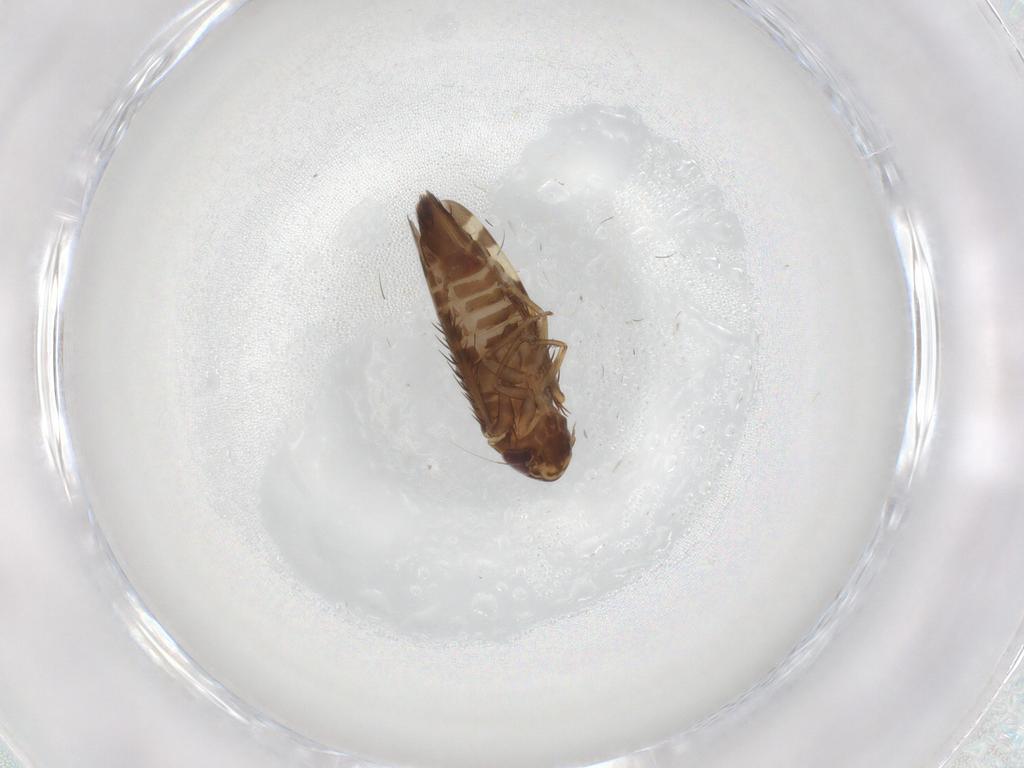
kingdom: Animalia
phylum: Arthropoda
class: Insecta
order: Hemiptera
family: Cicadellidae
